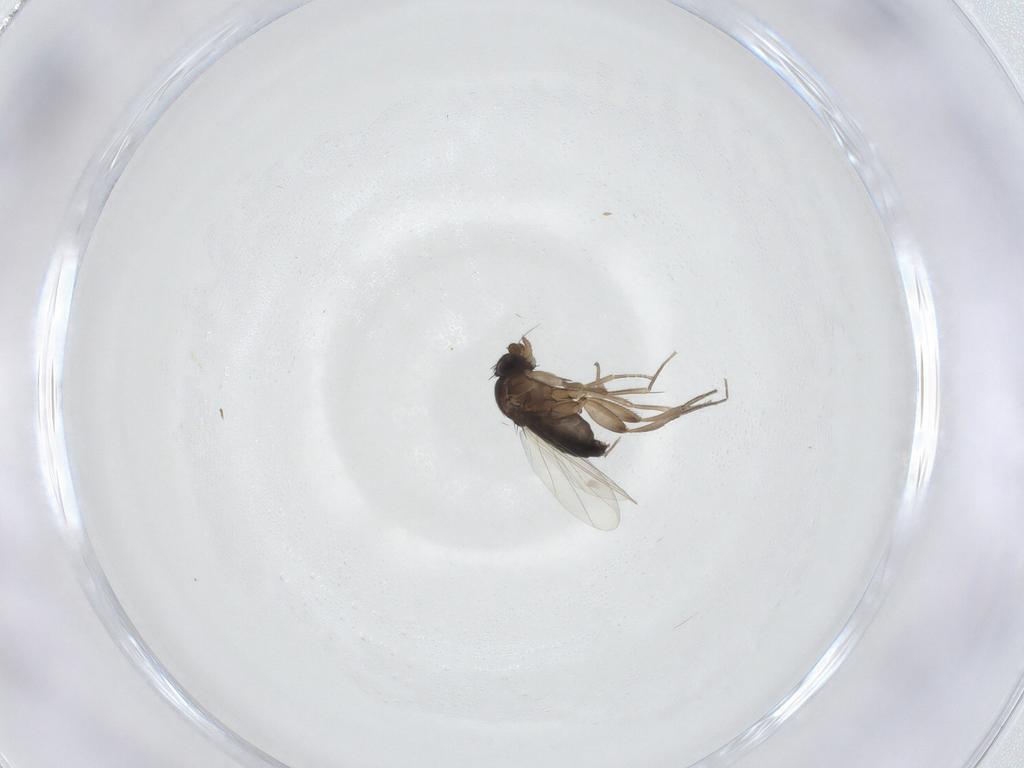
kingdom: Animalia
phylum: Arthropoda
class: Insecta
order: Diptera
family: Phoridae
